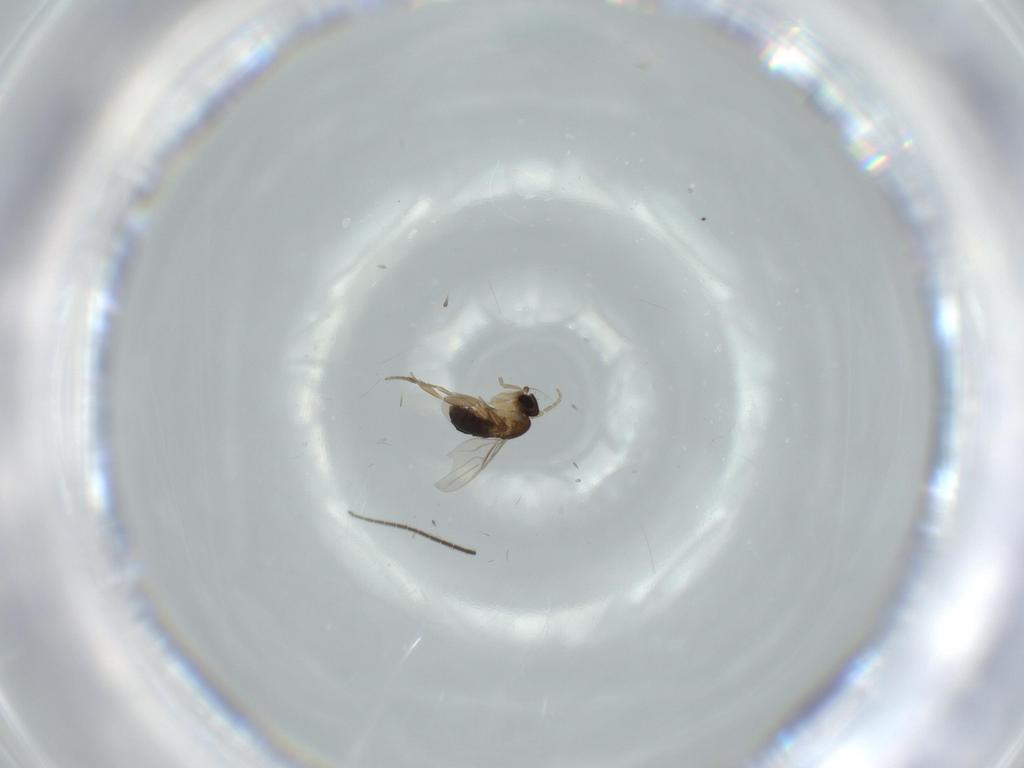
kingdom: Animalia
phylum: Arthropoda
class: Insecta
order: Diptera
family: Phoridae
